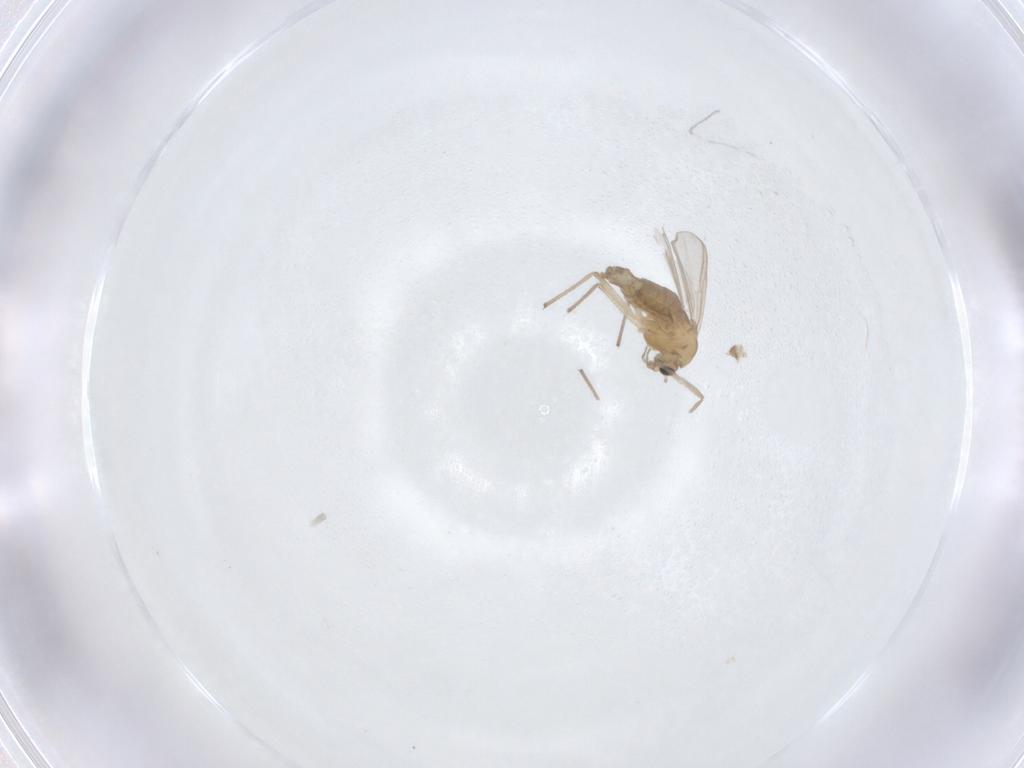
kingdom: Animalia
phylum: Arthropoda
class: Insecta
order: Diptera
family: Chironomidae
